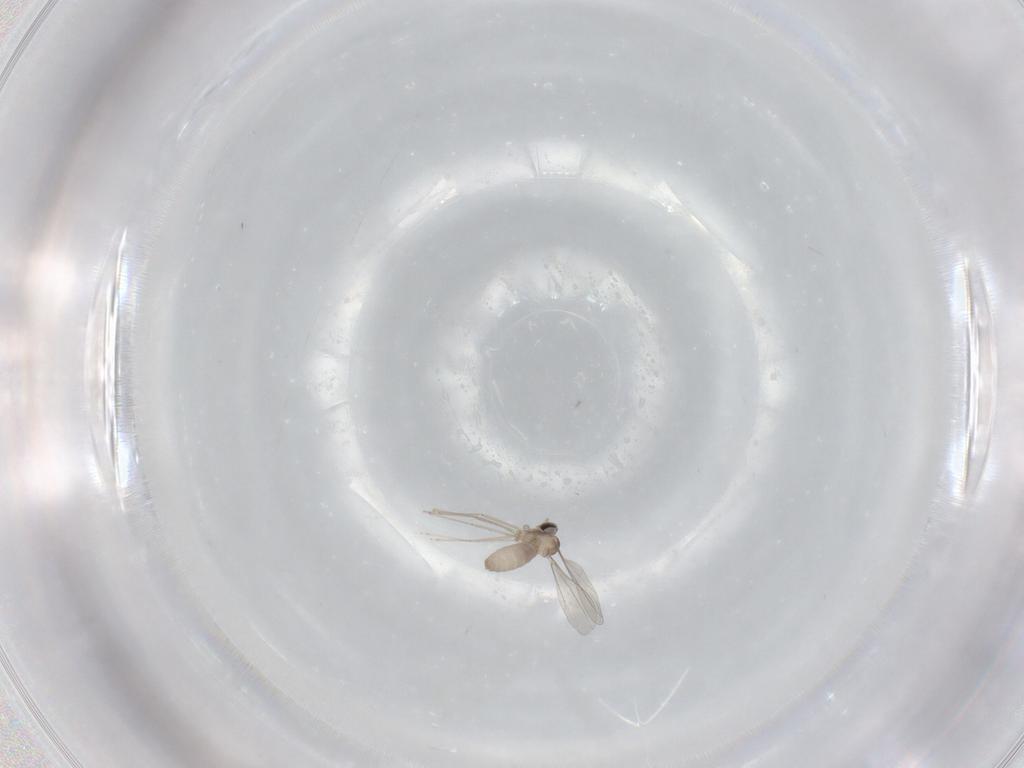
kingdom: Animalia
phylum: Arthropoda
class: Insecta
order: Diptera
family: Cecidomyiidae
